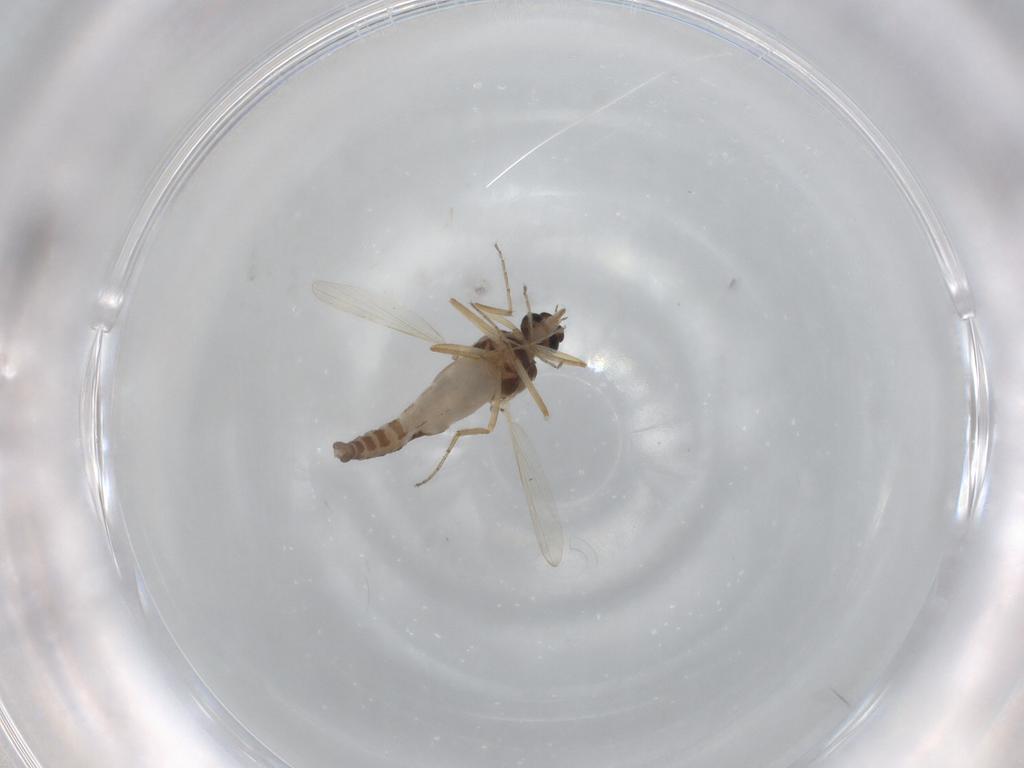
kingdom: Animalia
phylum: Arthropoda
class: Insecta
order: Diptera
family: Ceratopogonidae
